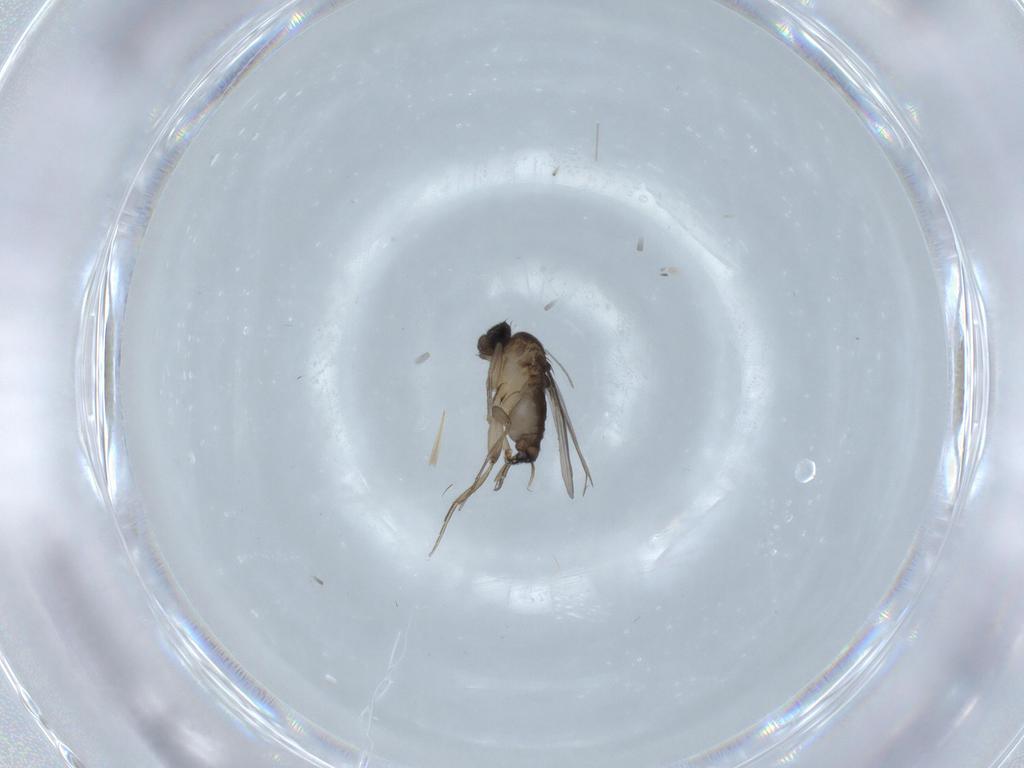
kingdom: Animalia
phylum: Arthropoda
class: Insecta
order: Diptera
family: Phoridae
